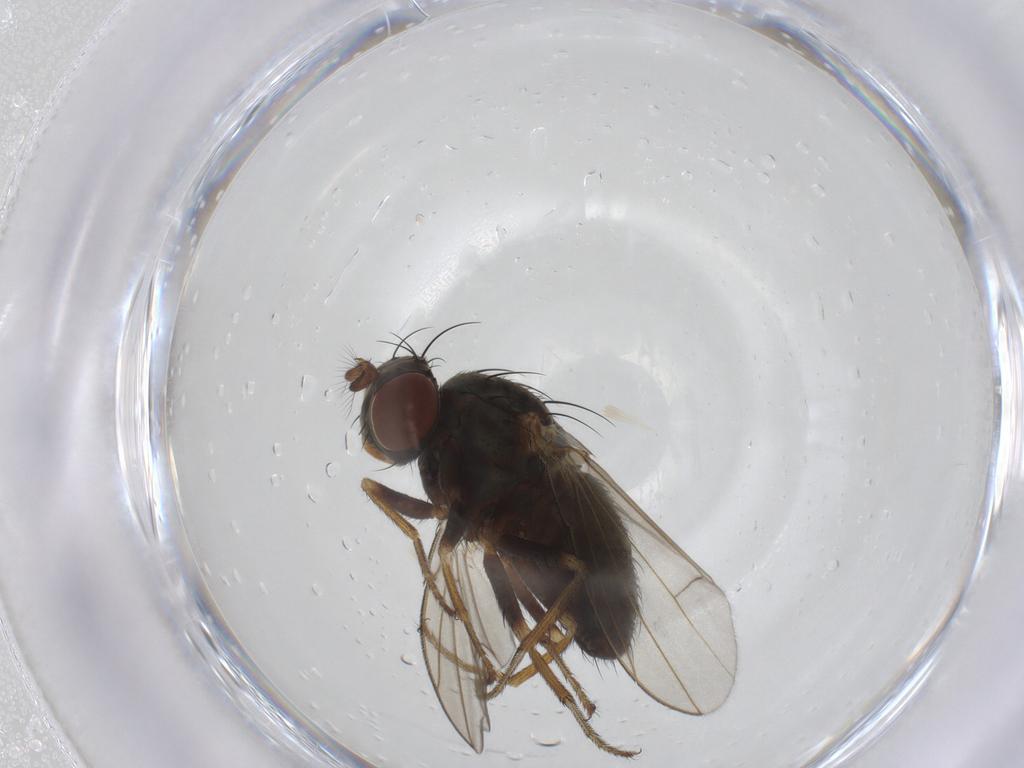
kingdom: Animalia
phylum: Arthropoda
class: Insecta
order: Diptera
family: Ephydridae
